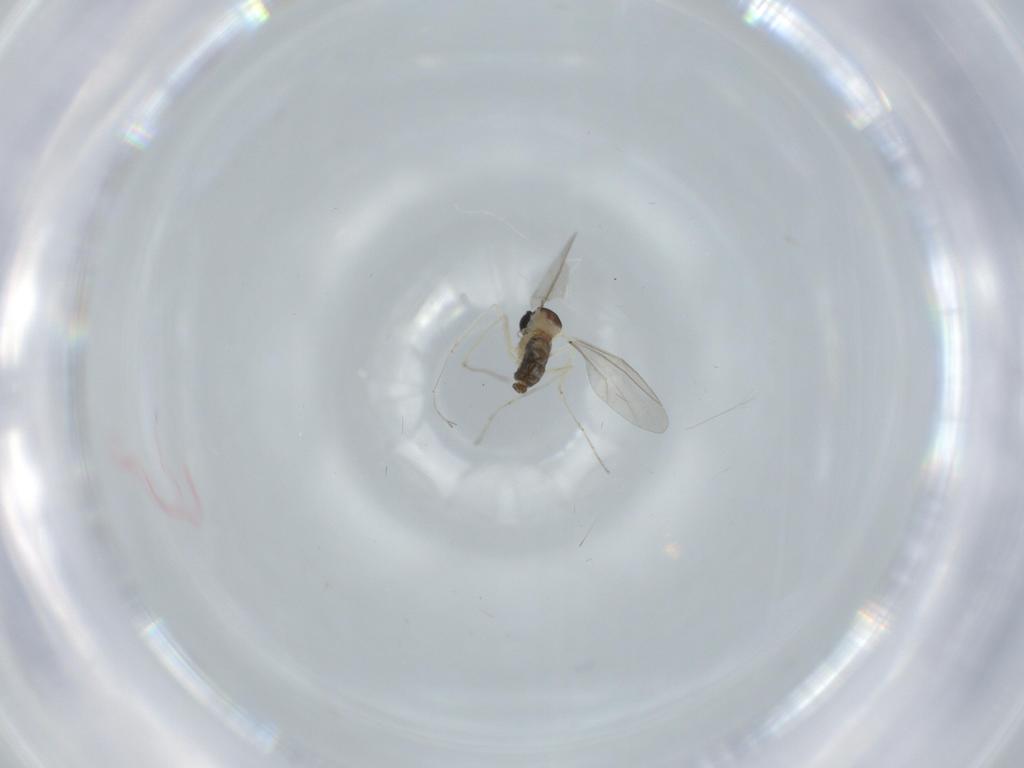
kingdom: Animalia
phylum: Arthropoda
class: Insecta
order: Diptera
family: Cecidomyiidae
